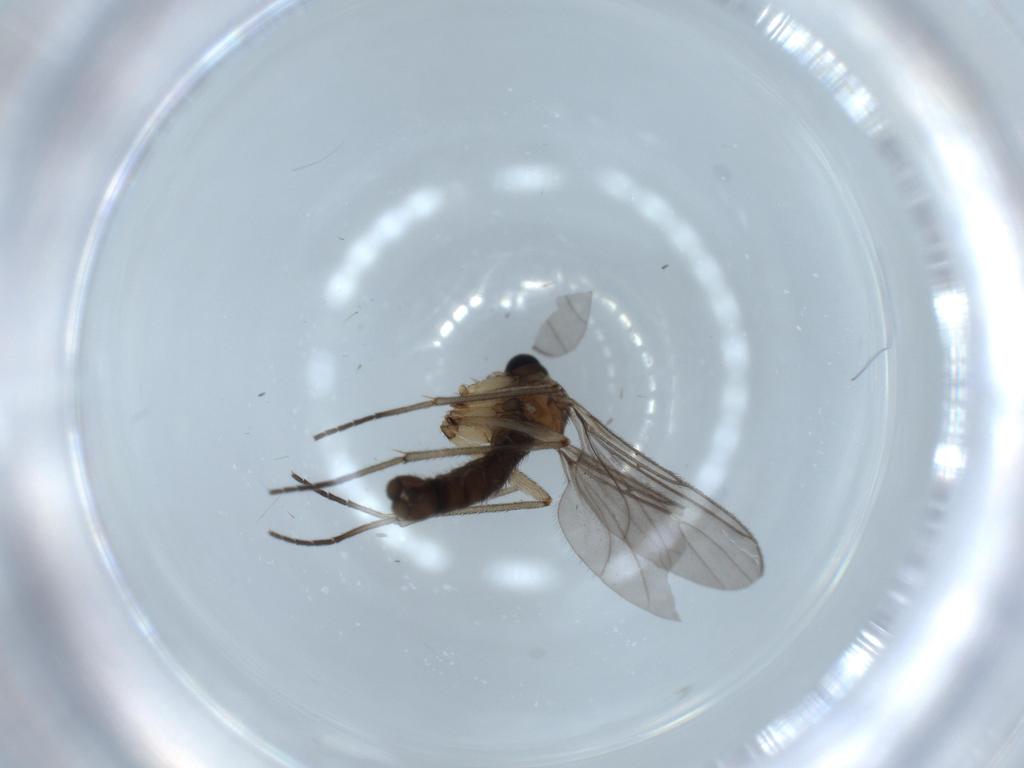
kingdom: Animalia
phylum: Arthropoda
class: Insecta
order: Diptera
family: Sciaridae
